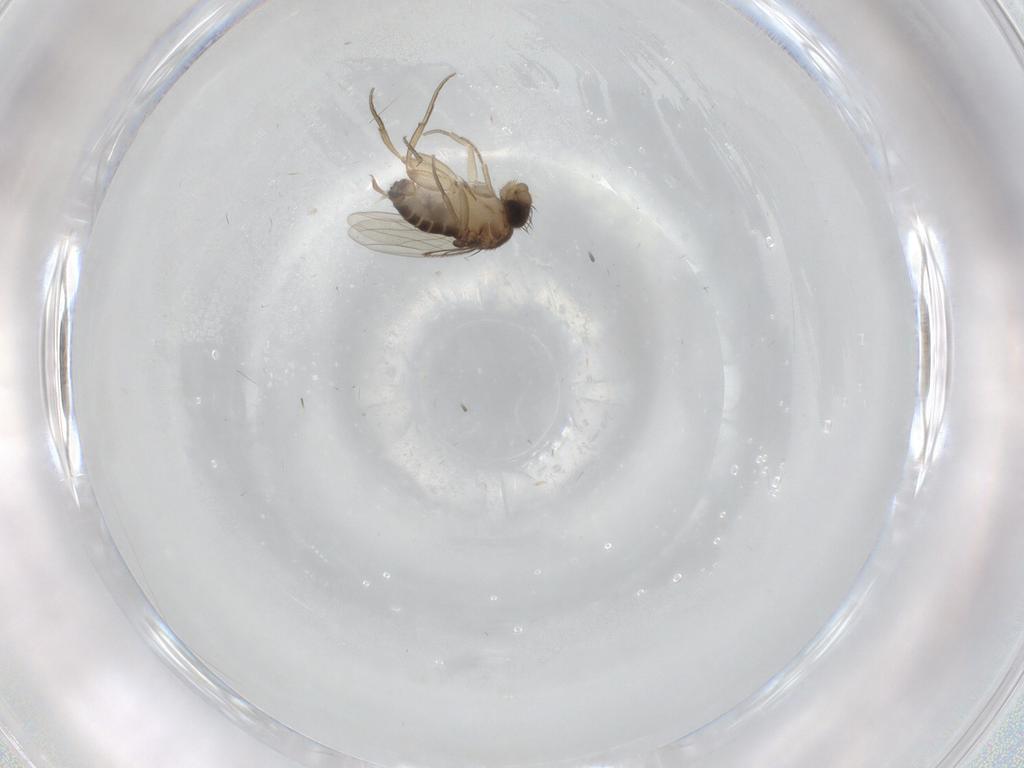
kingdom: Animalia
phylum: Arthropoda
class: Insecta
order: Diptera
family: Cecidomyiidae
